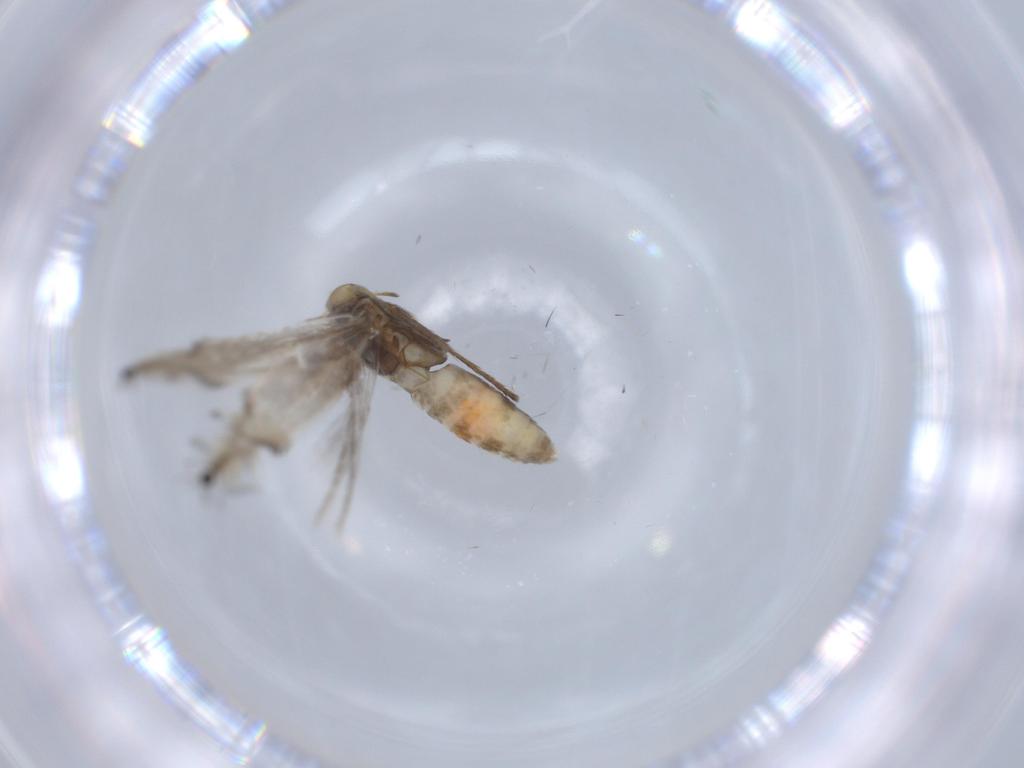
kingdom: Animalia
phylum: Arthropoda
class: Insecta
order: Lepidoptera
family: Gracillariidae
